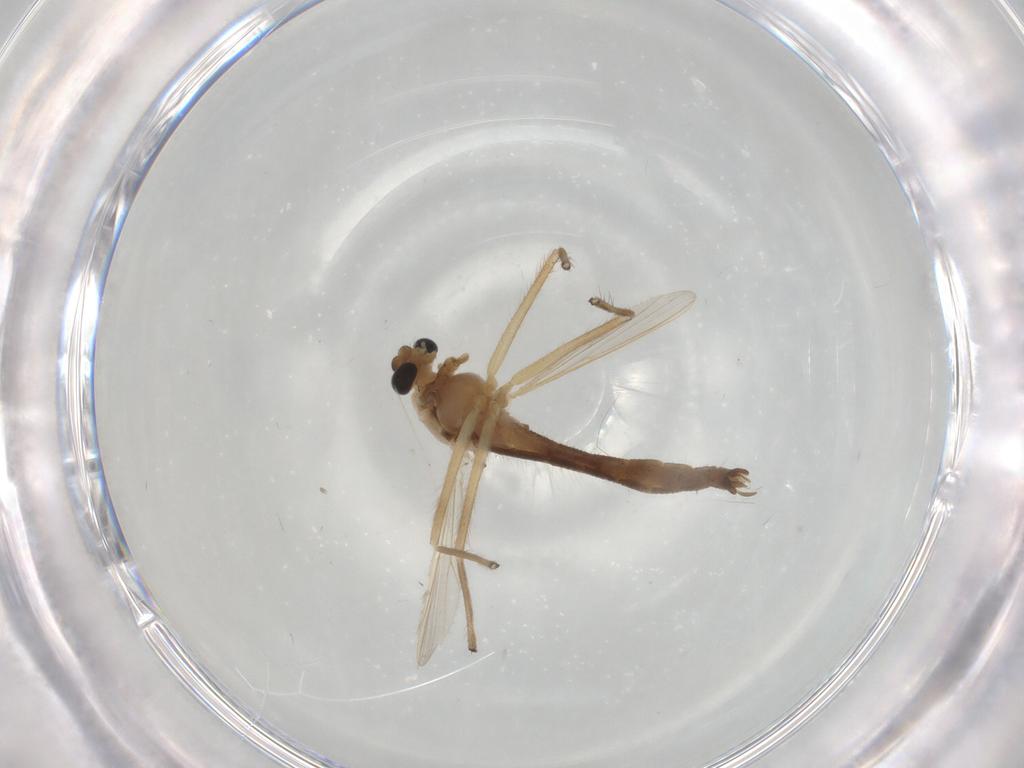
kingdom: Animalia
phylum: Arthropoda
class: Insecta
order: Diptera
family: Chironomidae
